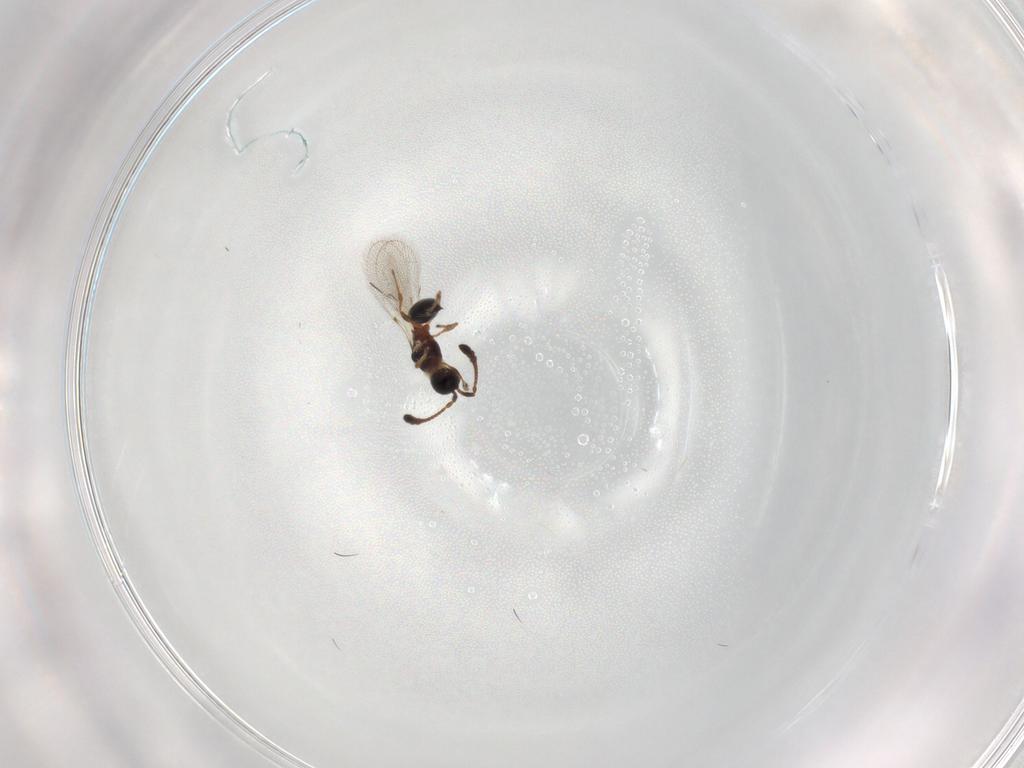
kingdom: Animalia
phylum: Arthropoda
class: Insecta
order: Hymenoptera
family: Diapriidae
